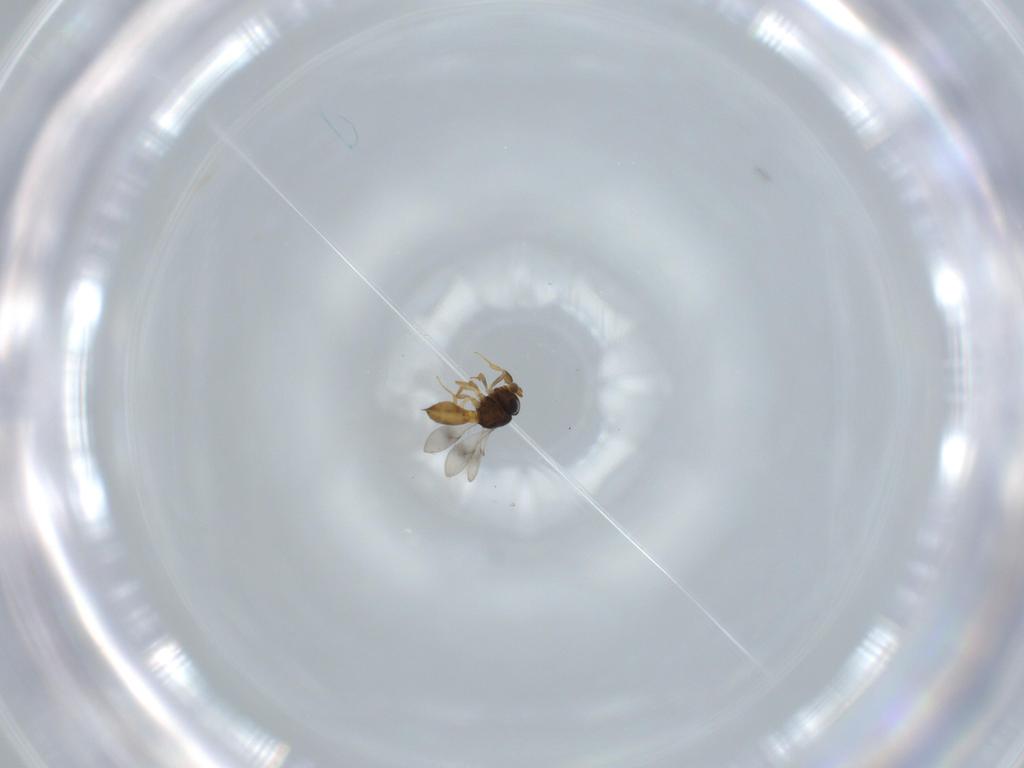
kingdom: Animalia
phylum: Arthropoda
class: Insecta
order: Hymenoptera
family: Scelionidae
